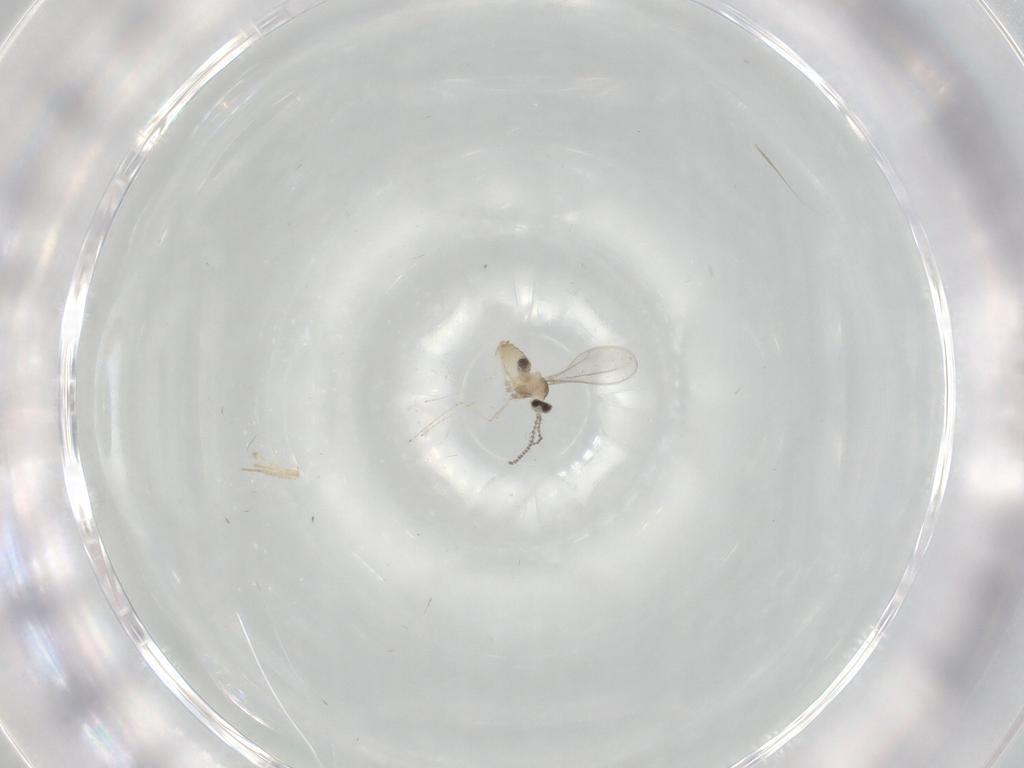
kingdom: Animalia
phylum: Arthropoda
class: Insecta
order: Diptera
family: Cecidomyiidae
